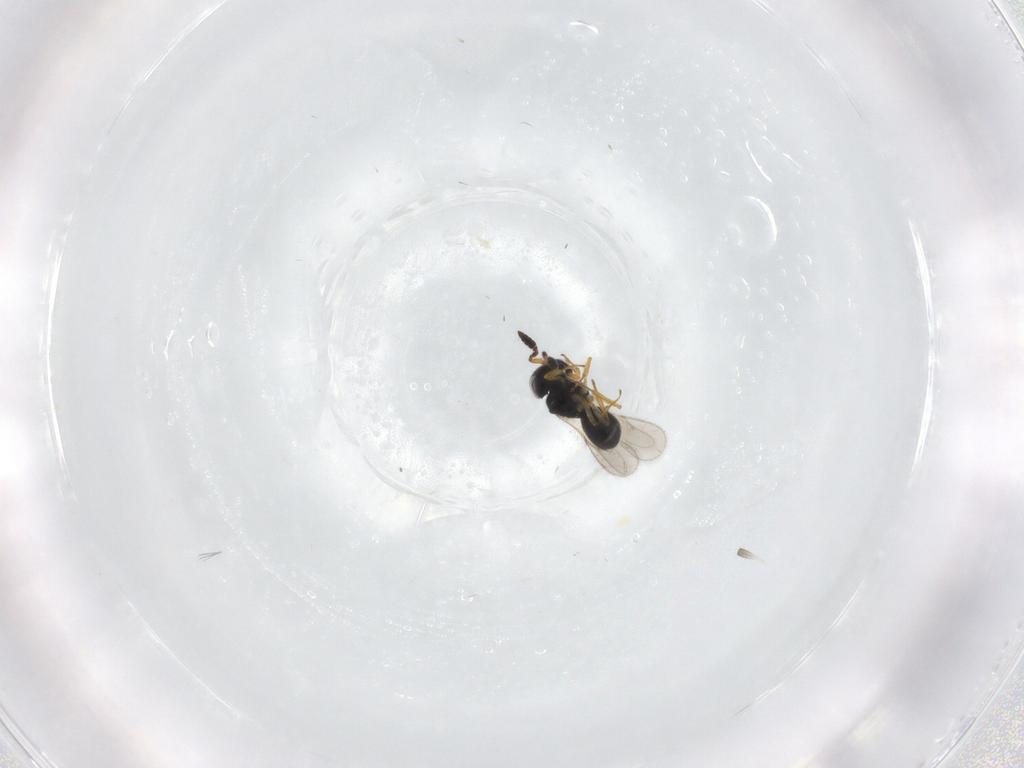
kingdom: Animalia
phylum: Arthropoda
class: Insecta
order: Hymenoptera
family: Scelionidae
